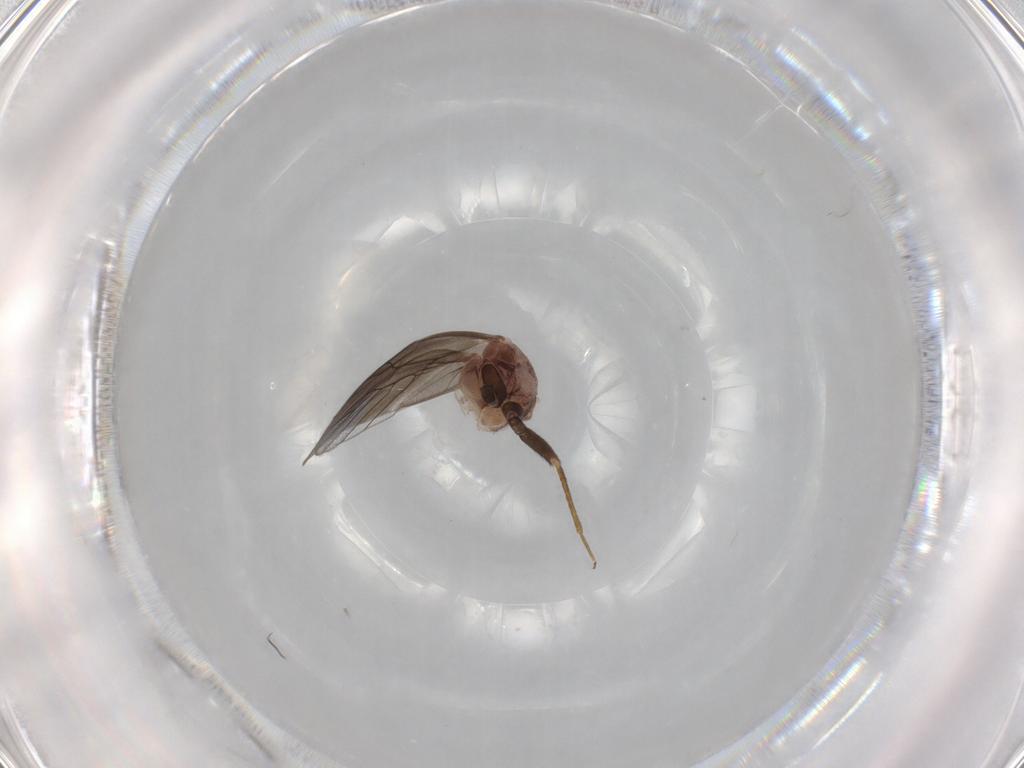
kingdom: Animalia
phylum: Arthropoda
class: Insecta
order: Psocodea
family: Lepidopsocidae
